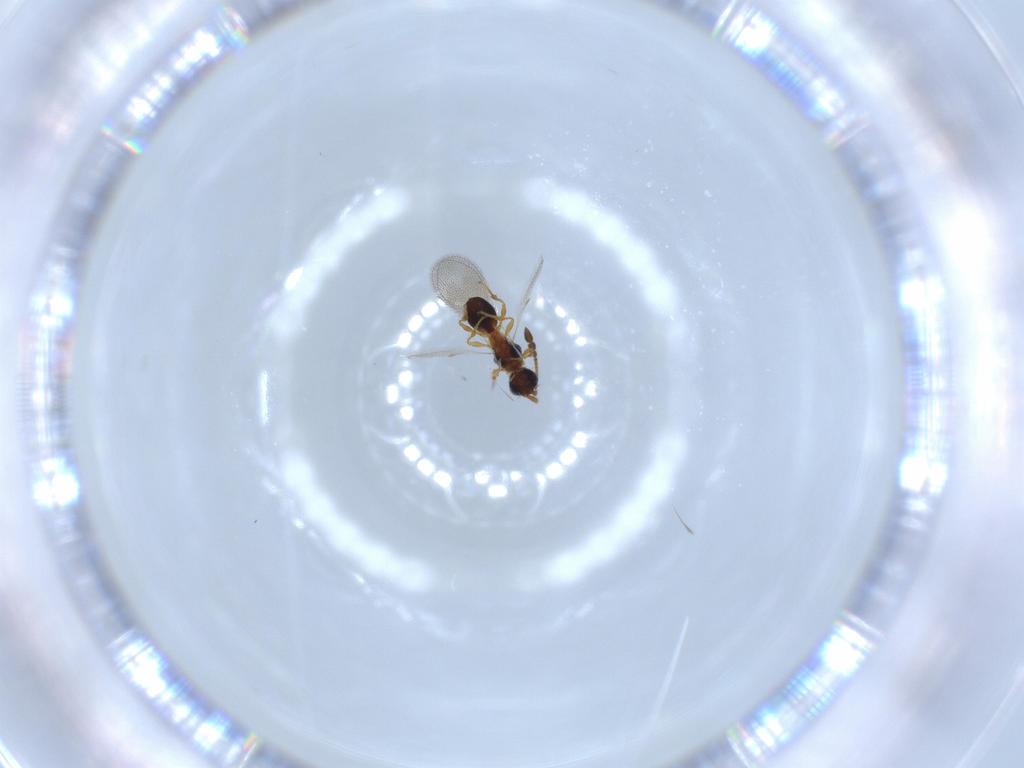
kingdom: Animalia
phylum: Arthropoda
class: Insecta
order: Hymenoptera
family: Diapriidae
